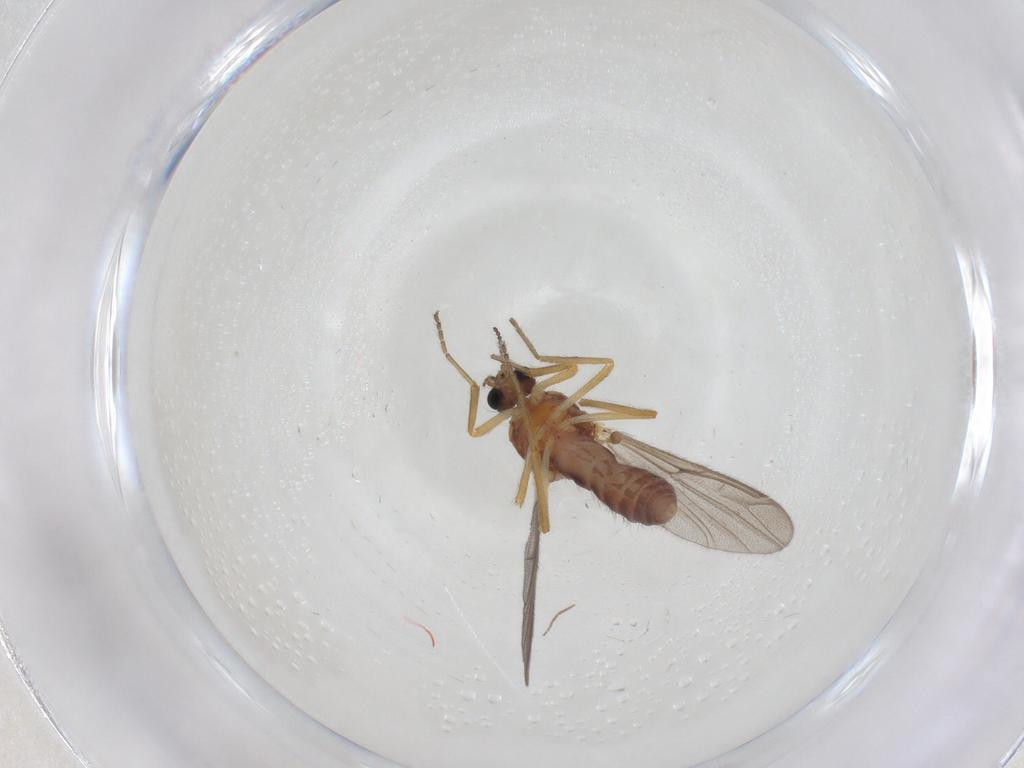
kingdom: Animalia
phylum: Arthropoda
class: Insecta
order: Diptera
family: Ceratopogonidae
